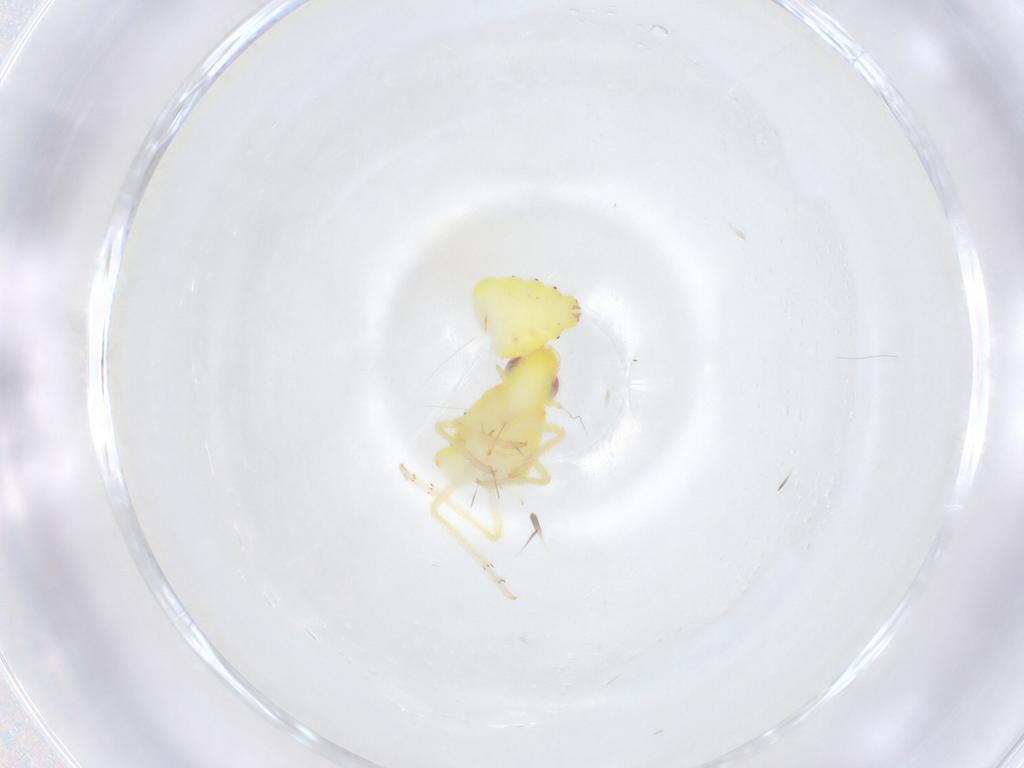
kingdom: Animalia
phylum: Arthropoda
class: Insecta
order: Hemiptera
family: Tropiduchidae
